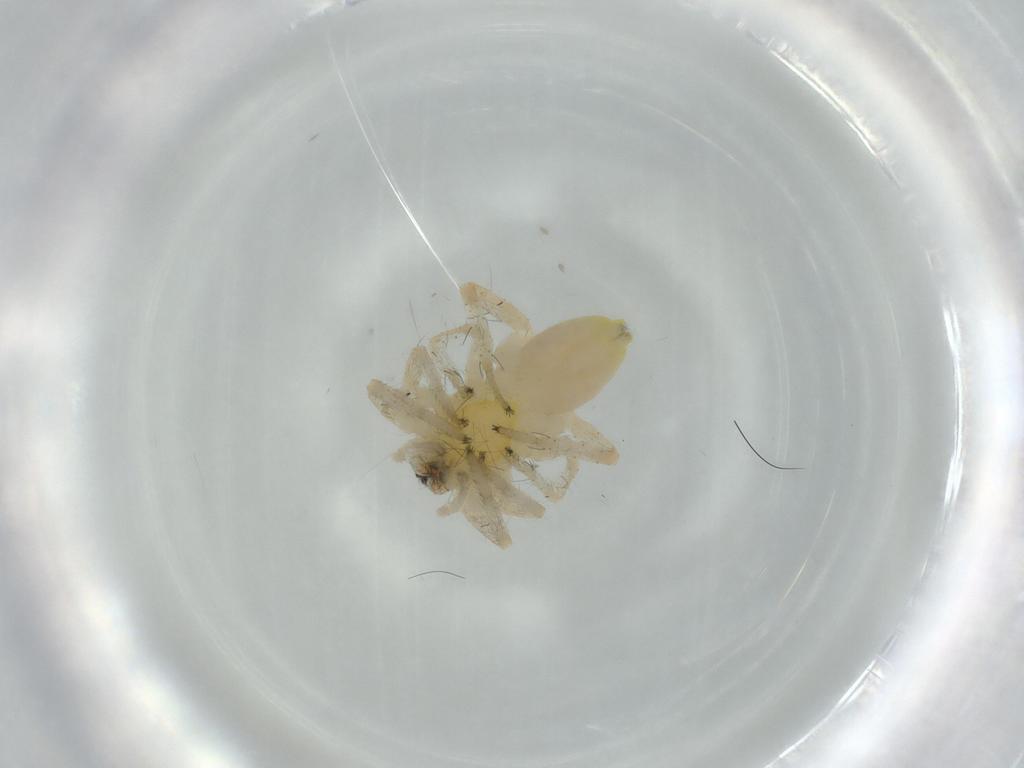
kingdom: Animalia
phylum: Arthropoda
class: Arachnida
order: Araneae
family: Anyphaenidae
